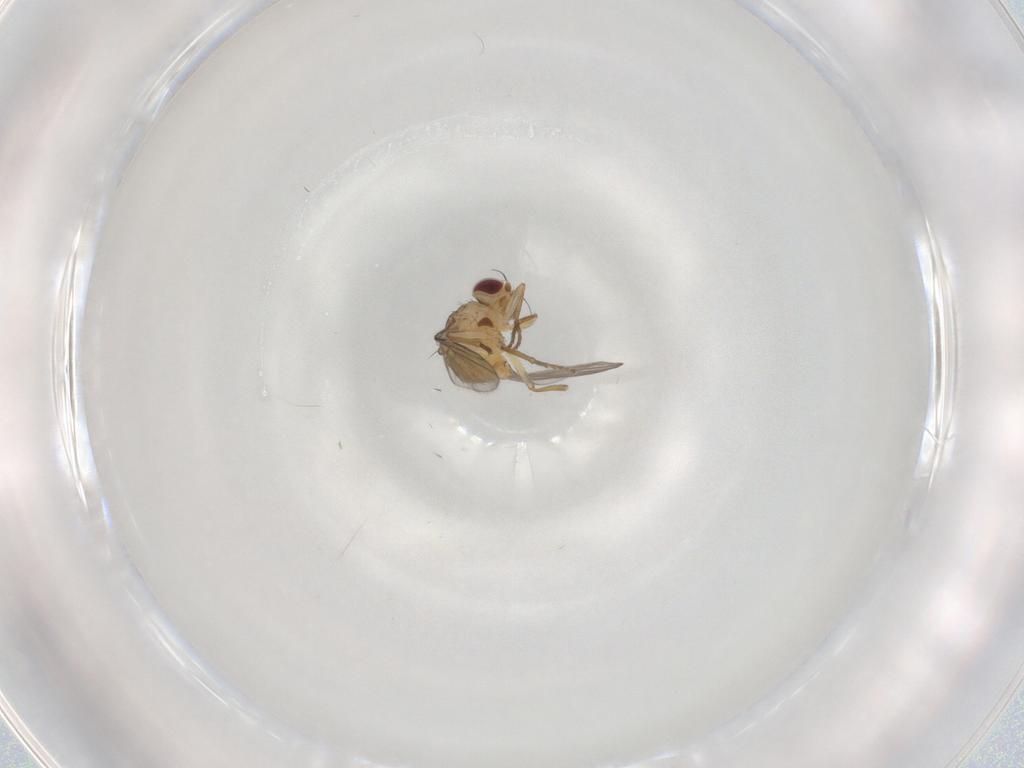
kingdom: Animalia
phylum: Arthropoda
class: Insecta
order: Diptera
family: Agromyzidae
